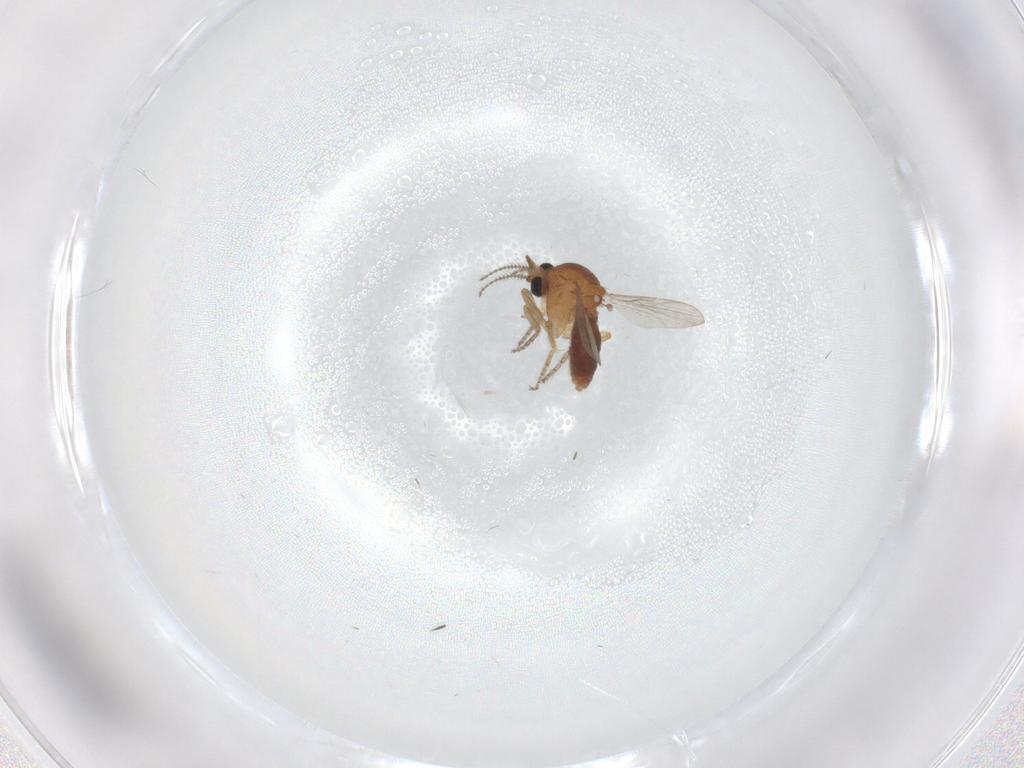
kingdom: Animalia
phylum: Arthropoda
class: Insecta
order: Diptera
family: Ceratopogonidae
